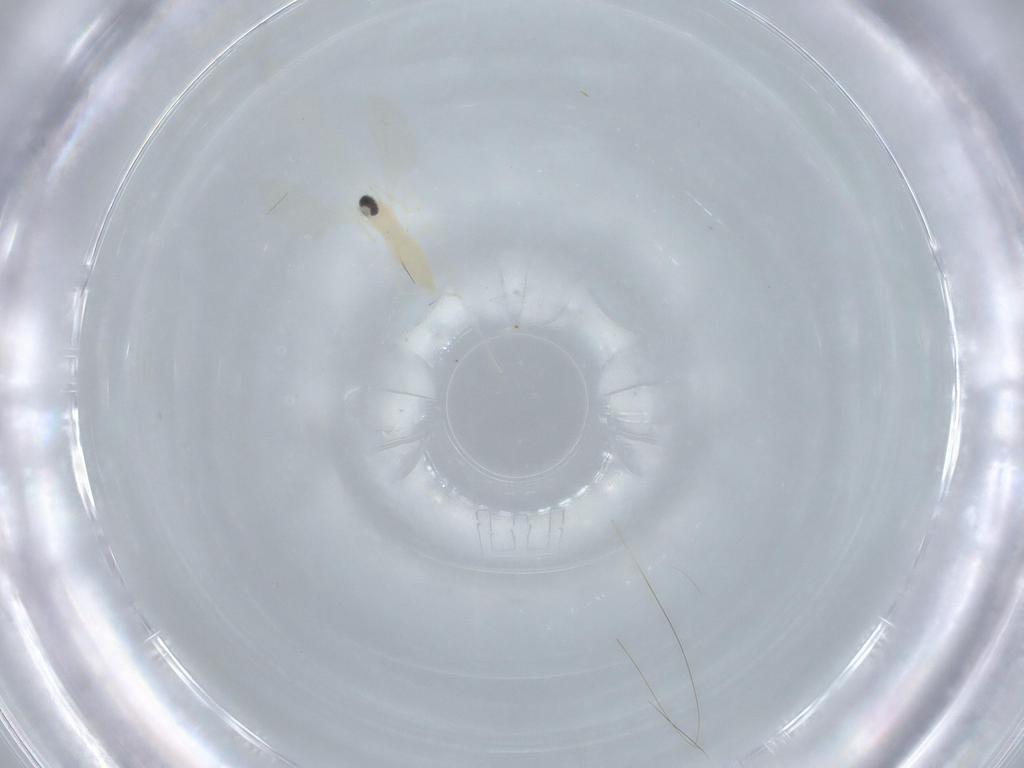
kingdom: Animalia
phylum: Arthropoda
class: Insecta
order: Diptera
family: Cecidomyiidae
